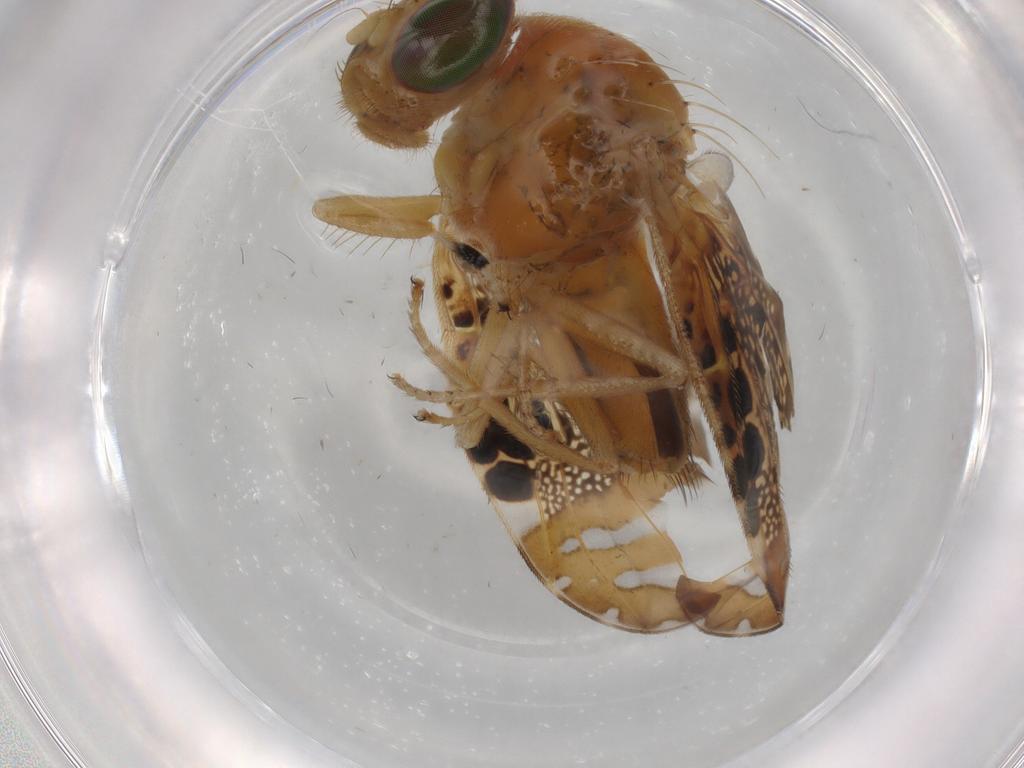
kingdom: Animalia
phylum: Arthropoda
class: Insecta
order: Diptera
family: Tephritidae
